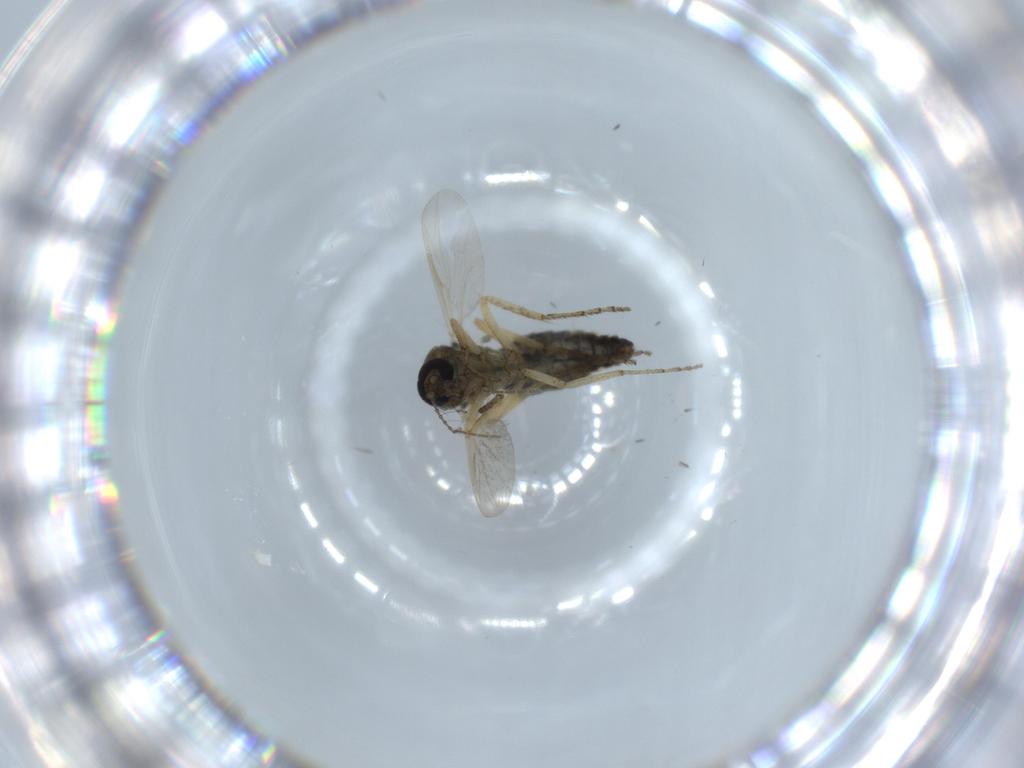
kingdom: Animalia
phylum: Arthropoda
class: Insecta
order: Diptera
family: Ceratopogonidae
